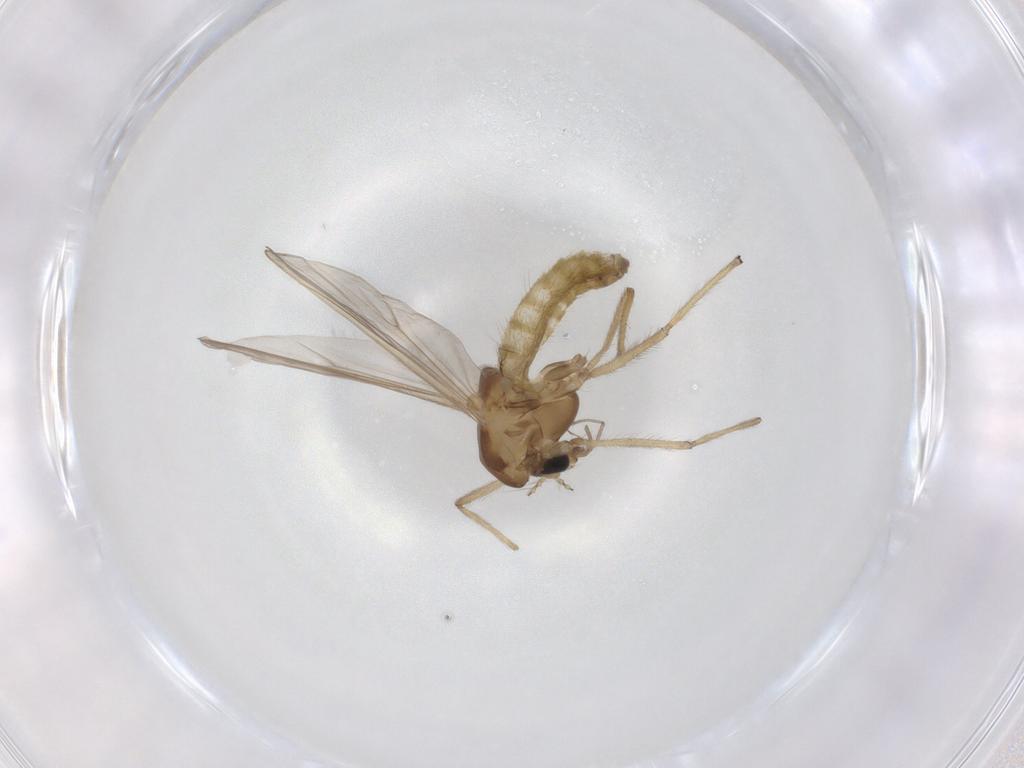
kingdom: Animalia
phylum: Arthropoda
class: Insecta
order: Diptera
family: Chironomidae
